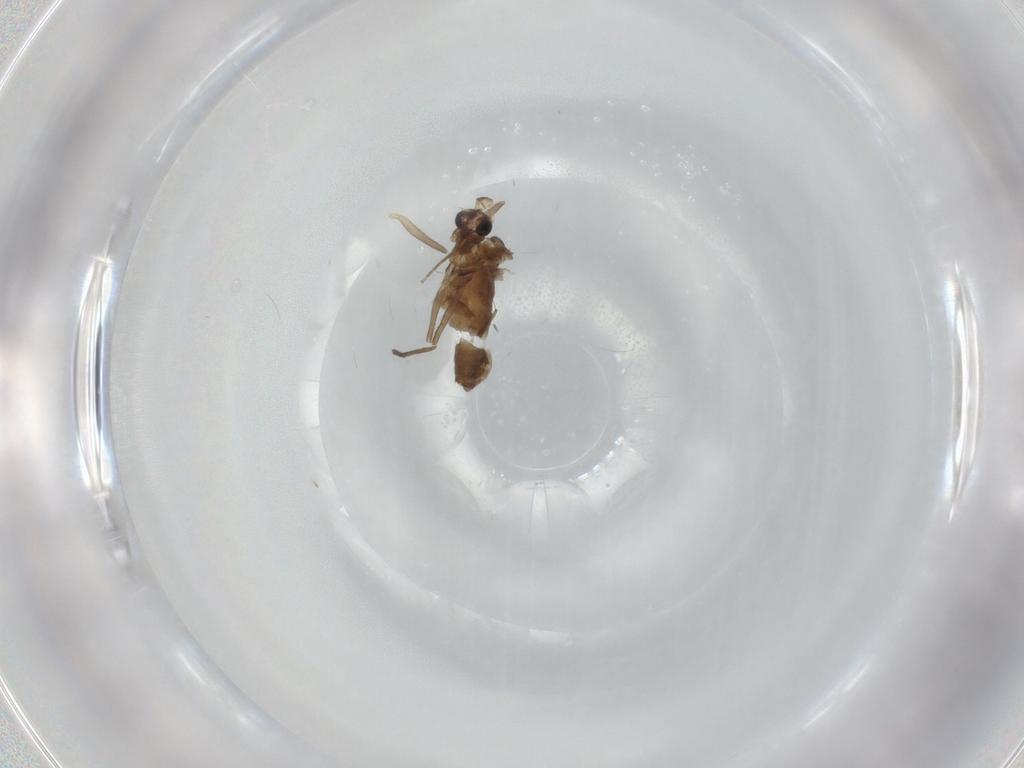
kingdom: Animalia
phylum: Arthropoda
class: Insecta
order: Diptera
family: Chironomidae
